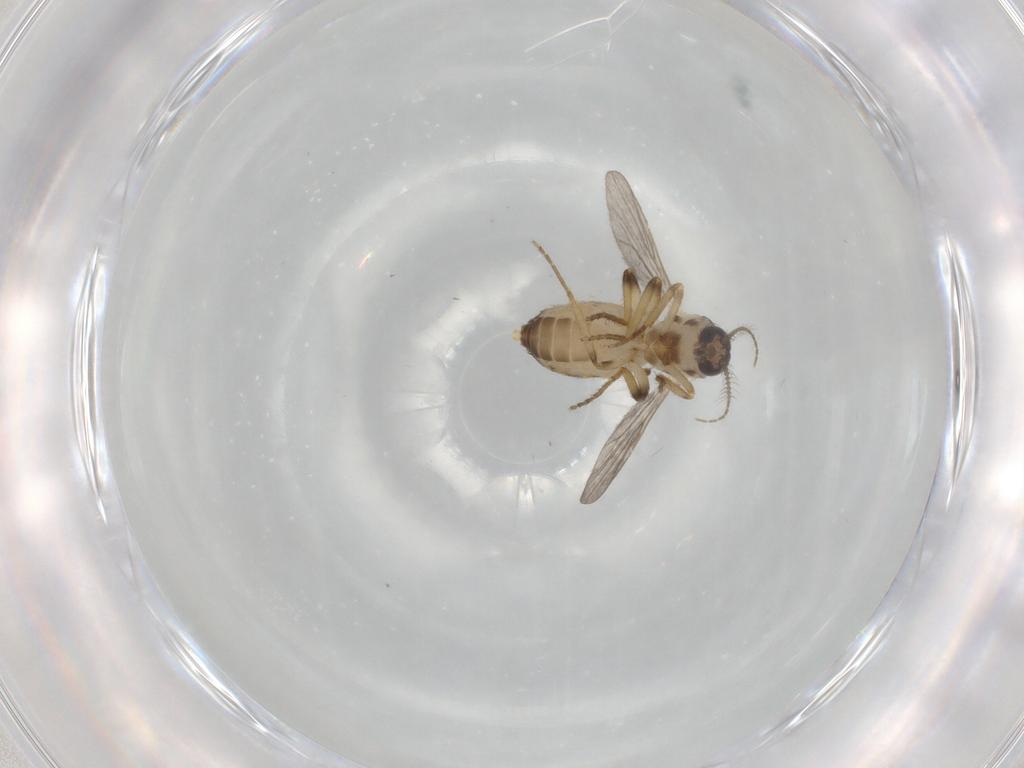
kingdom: Animalia
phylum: Arthropoda
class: Insecta
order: Diptera
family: Ceratopogonidae
